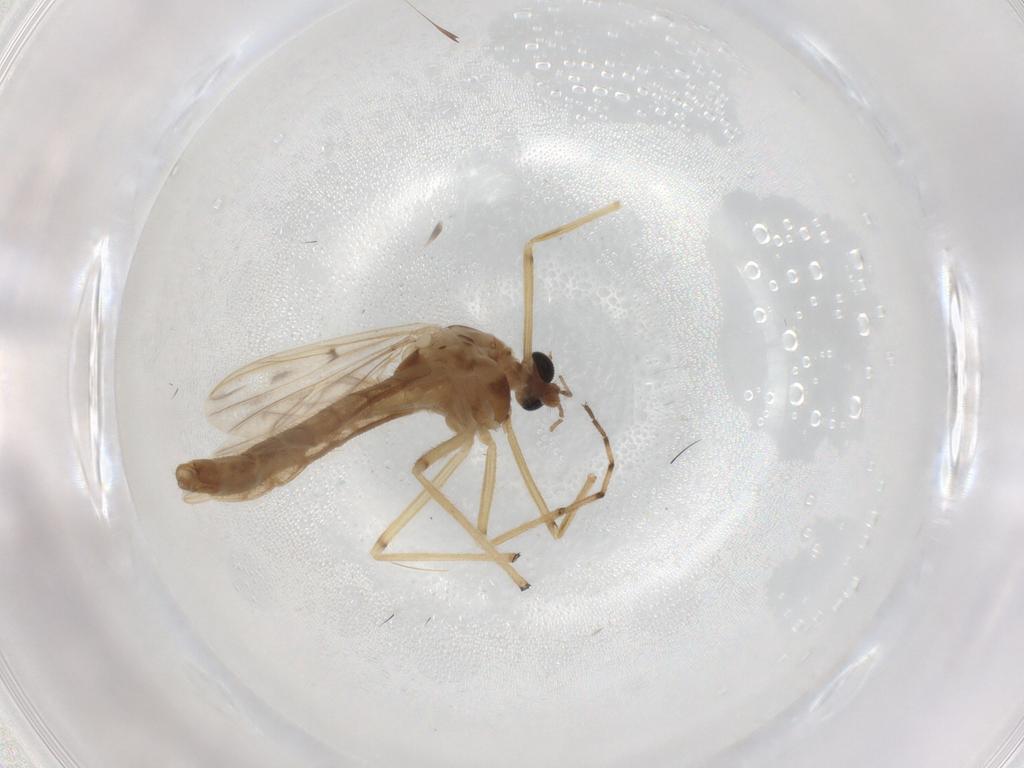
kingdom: Animalia
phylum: Arthropoda
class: Insecta
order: Diptera
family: Chironomidae
